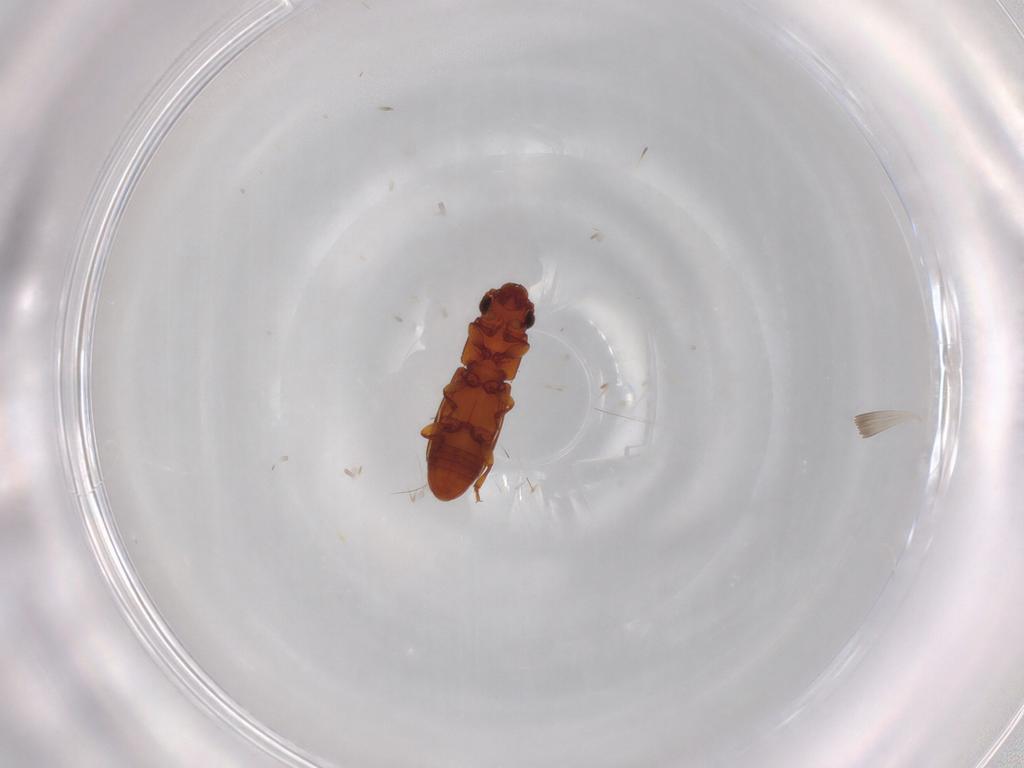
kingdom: Animalia
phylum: Arthropoda
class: Insecta
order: Coleoptera
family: Monotomidae
